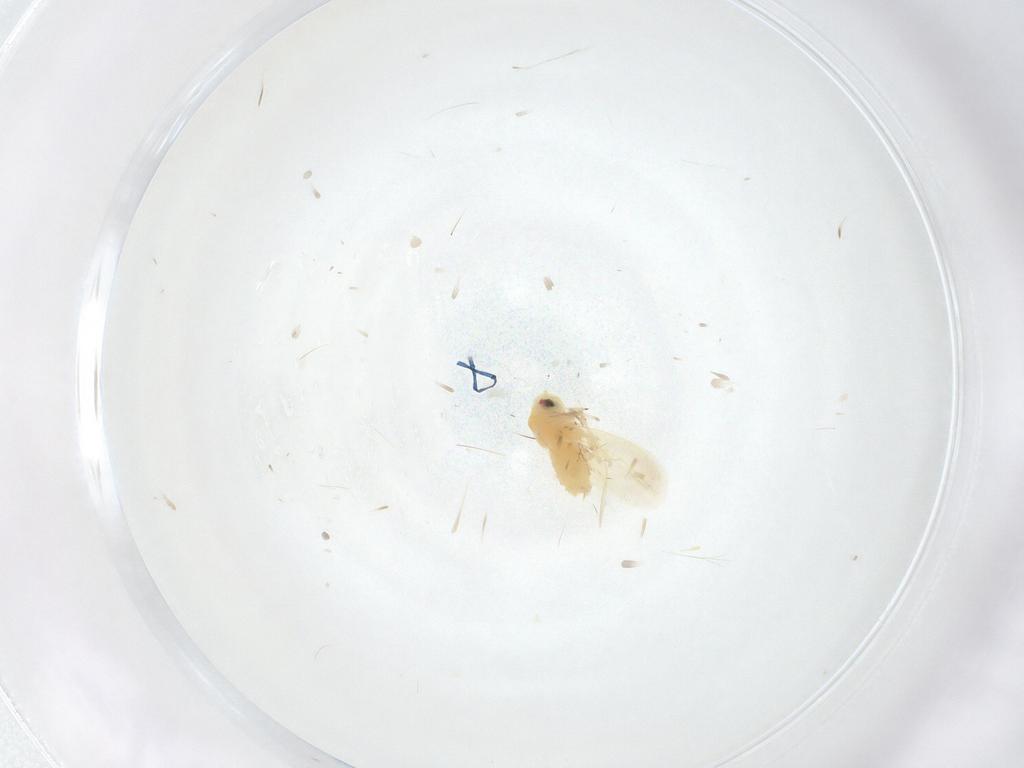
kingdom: Animalia
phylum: Arthropoda
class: Insecta
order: Hemiptera
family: Aleyrodidae
